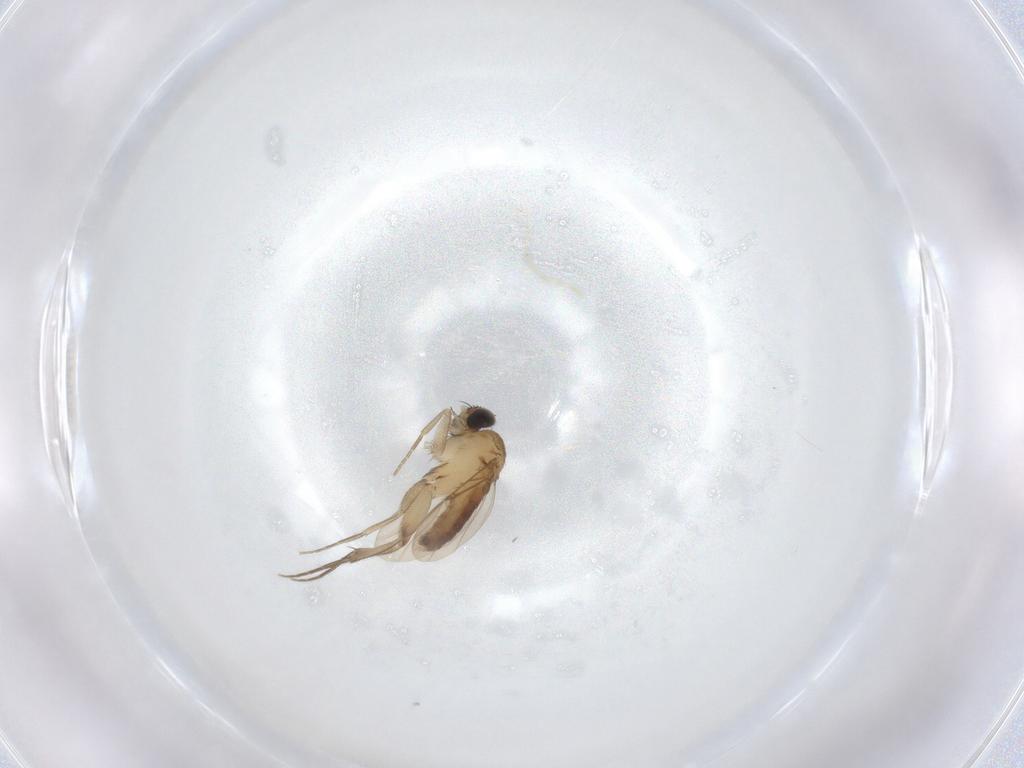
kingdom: Animalia
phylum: Arthropoda
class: Insecta
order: Diptera
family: Phoridae
